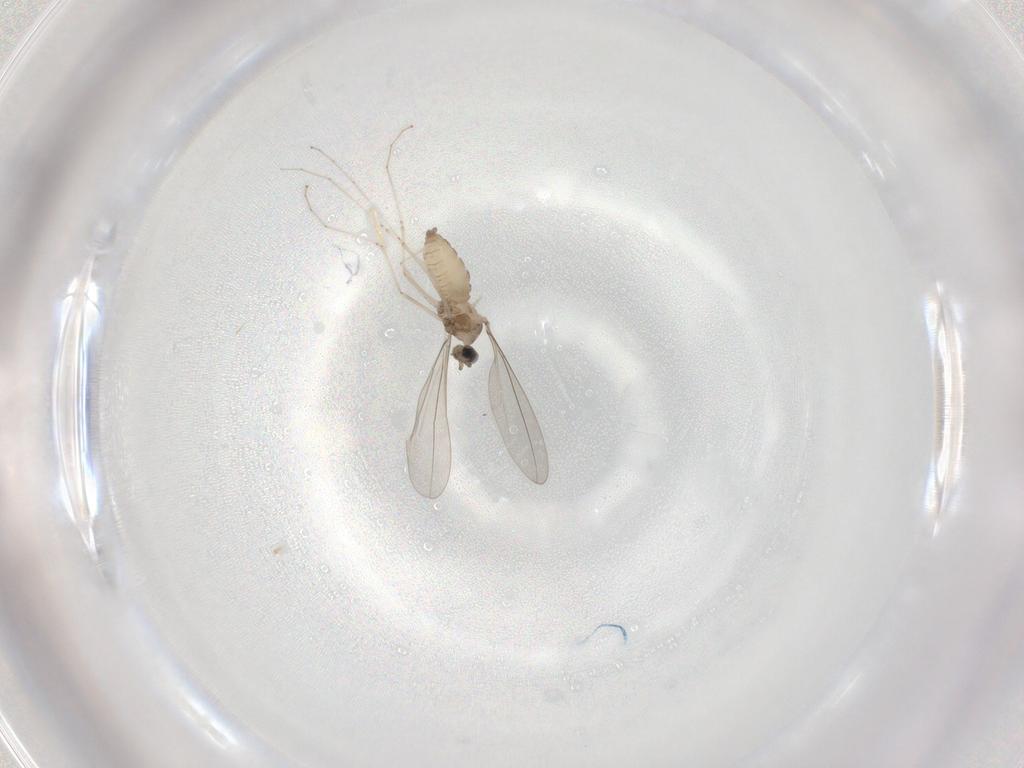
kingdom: Animalia
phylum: Arthropoda
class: Insecta
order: Diptera
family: Cecidomyiidae
